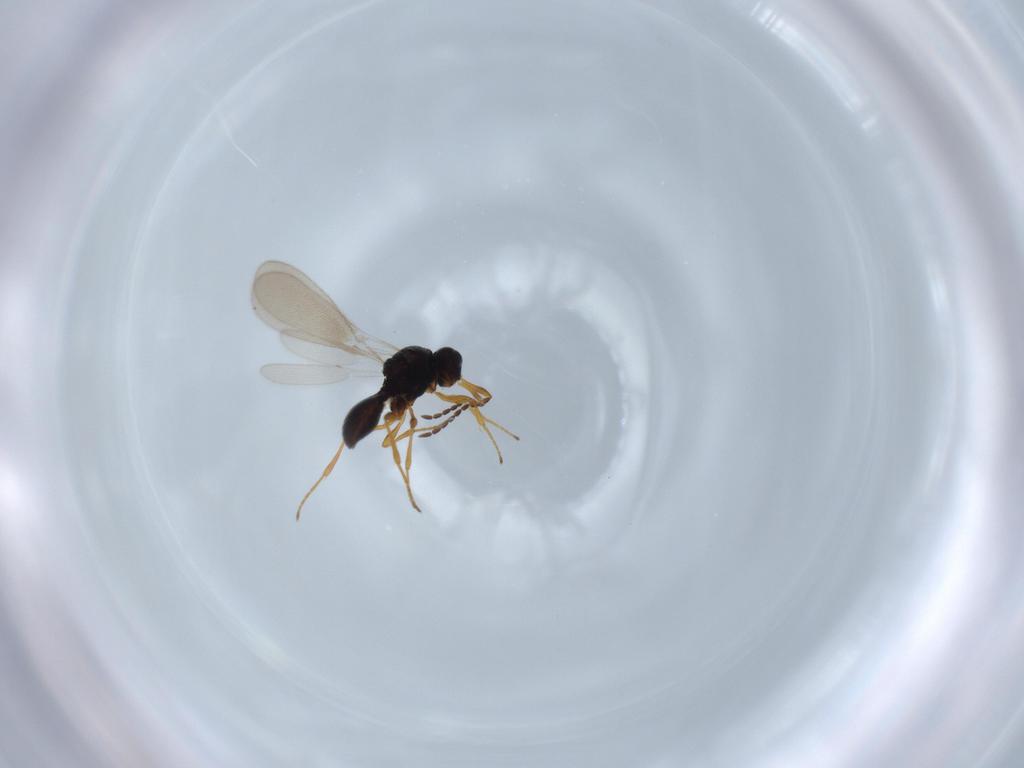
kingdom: Animalia
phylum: Arthropoda
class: Insecta
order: Diptera
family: Mythicomyiidae
